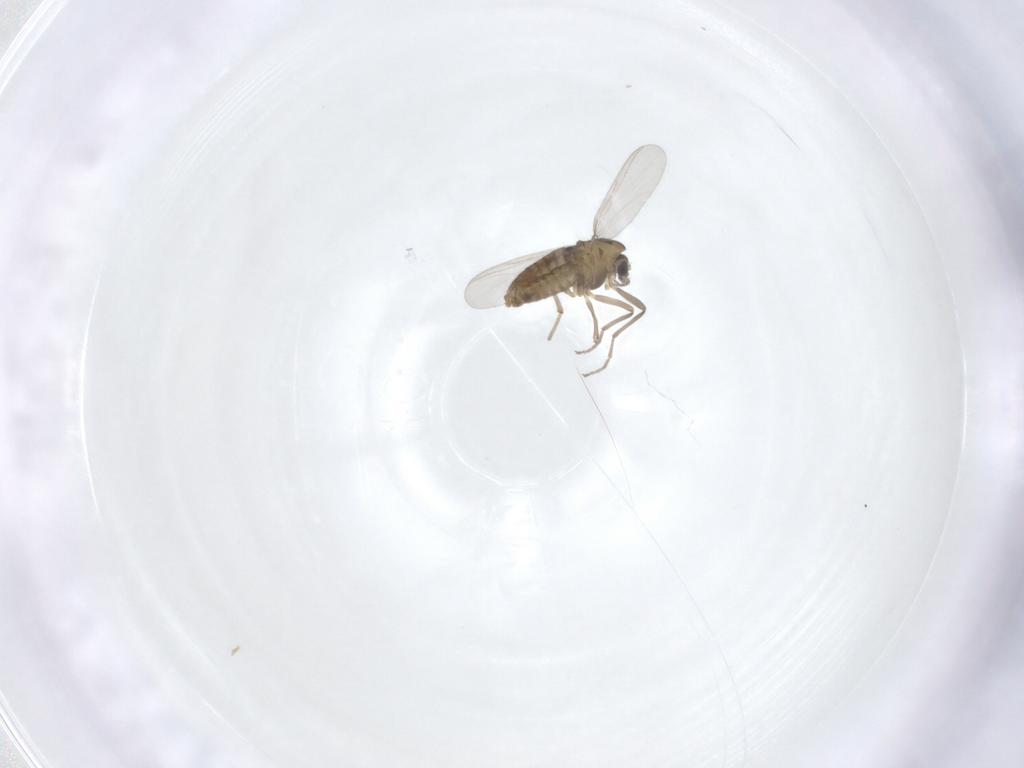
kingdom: Animalia
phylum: Arthropoda
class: Insecta
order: Diptera
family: Chironomidae
